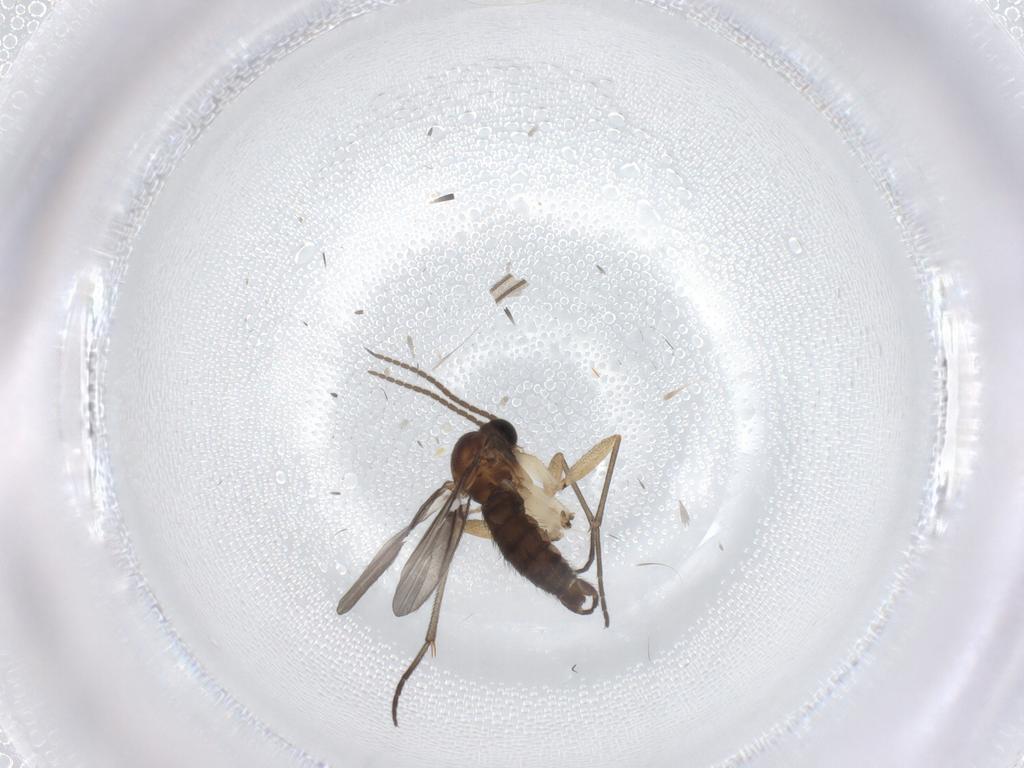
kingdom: Animalia
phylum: Arthropoda
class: Insecta
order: Diptera
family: Sciaridae
